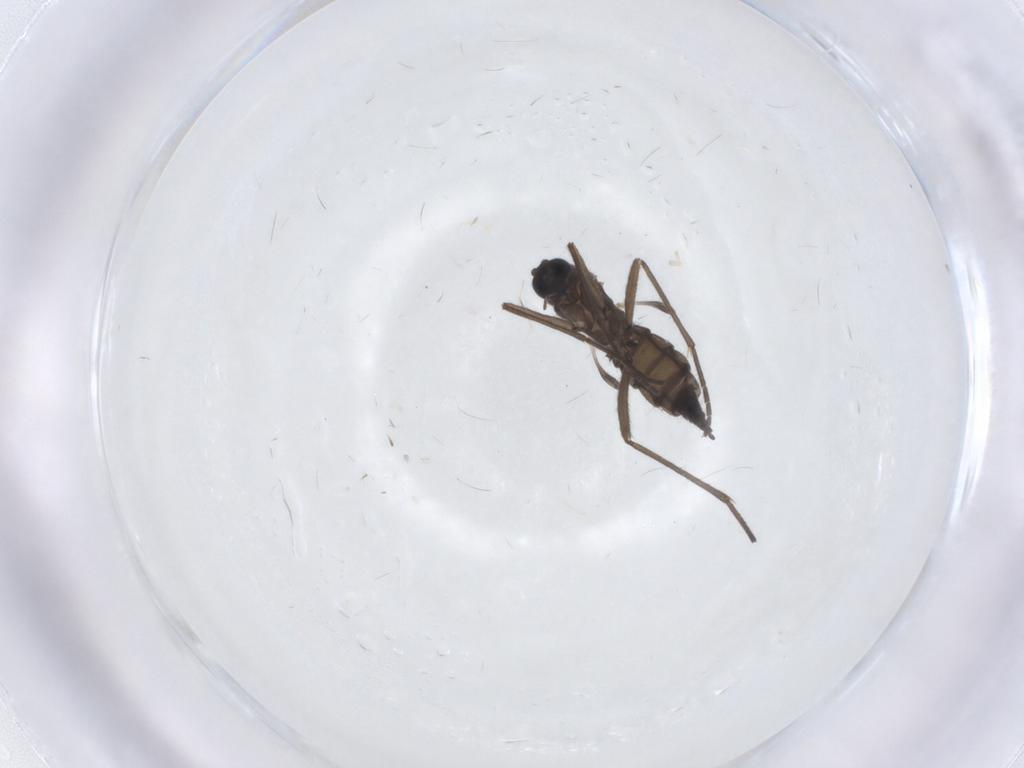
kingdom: Animalia
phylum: Arthropoda
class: Insecta
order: Diptera
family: Sciaridae
